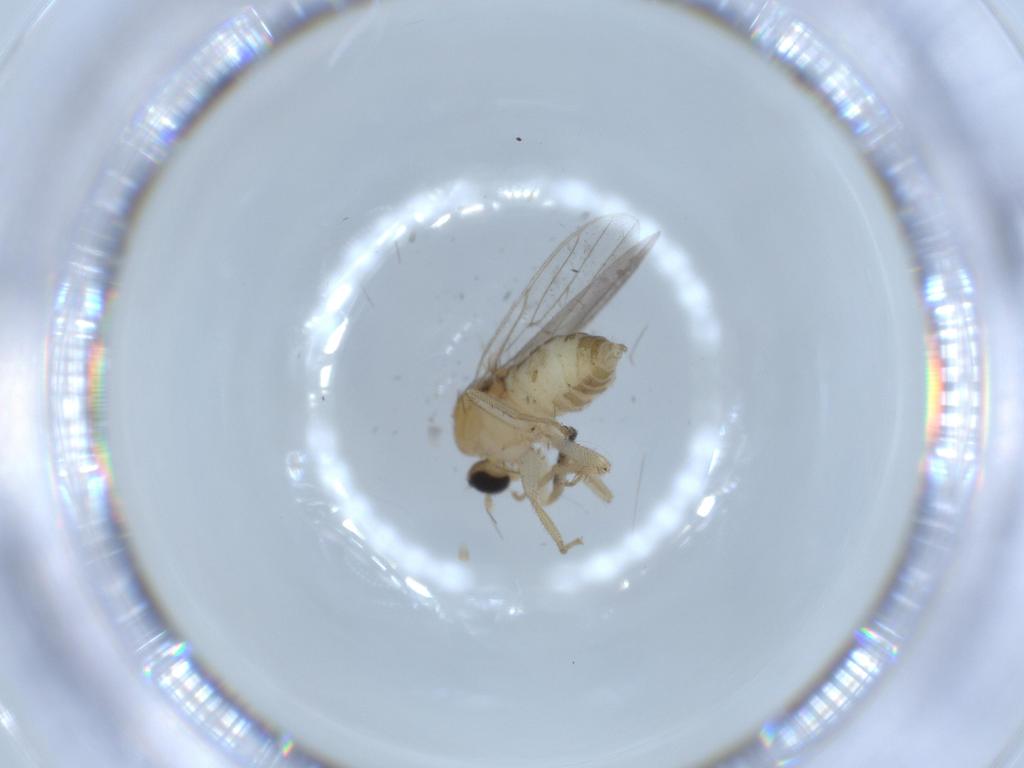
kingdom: Animalia
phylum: Arthropoda
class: Insecta
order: Diptera
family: Hybotidae
